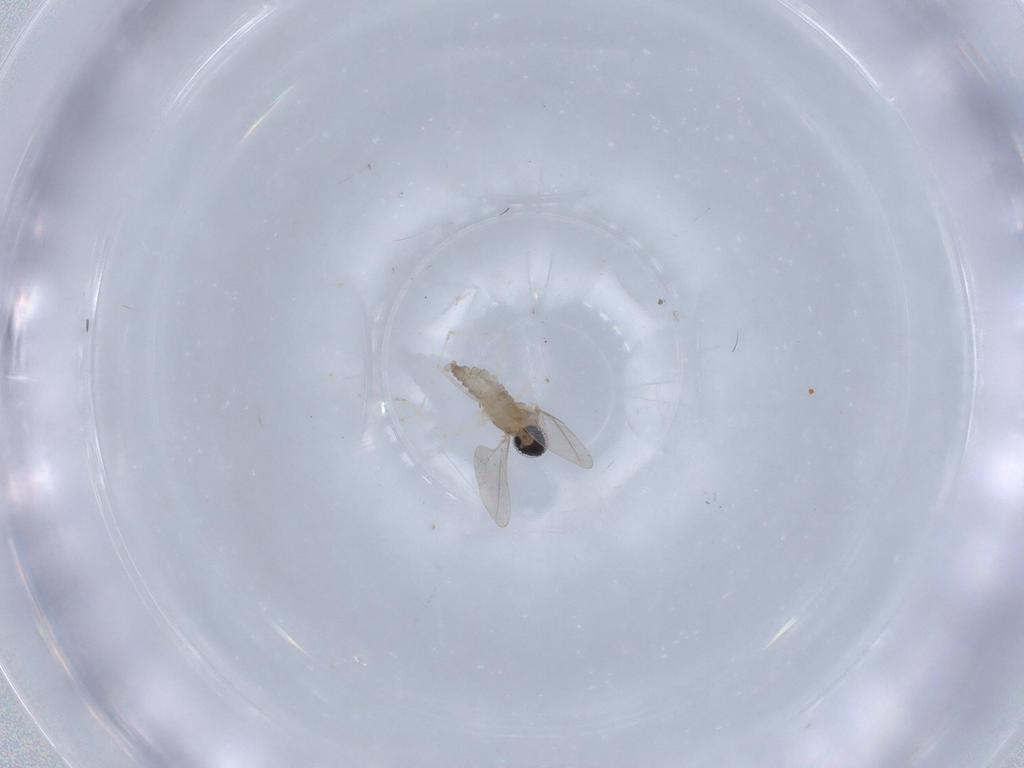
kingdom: Animalia
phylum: Arthropoda
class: Insecta
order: Diptera
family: Cecidomyiidae
